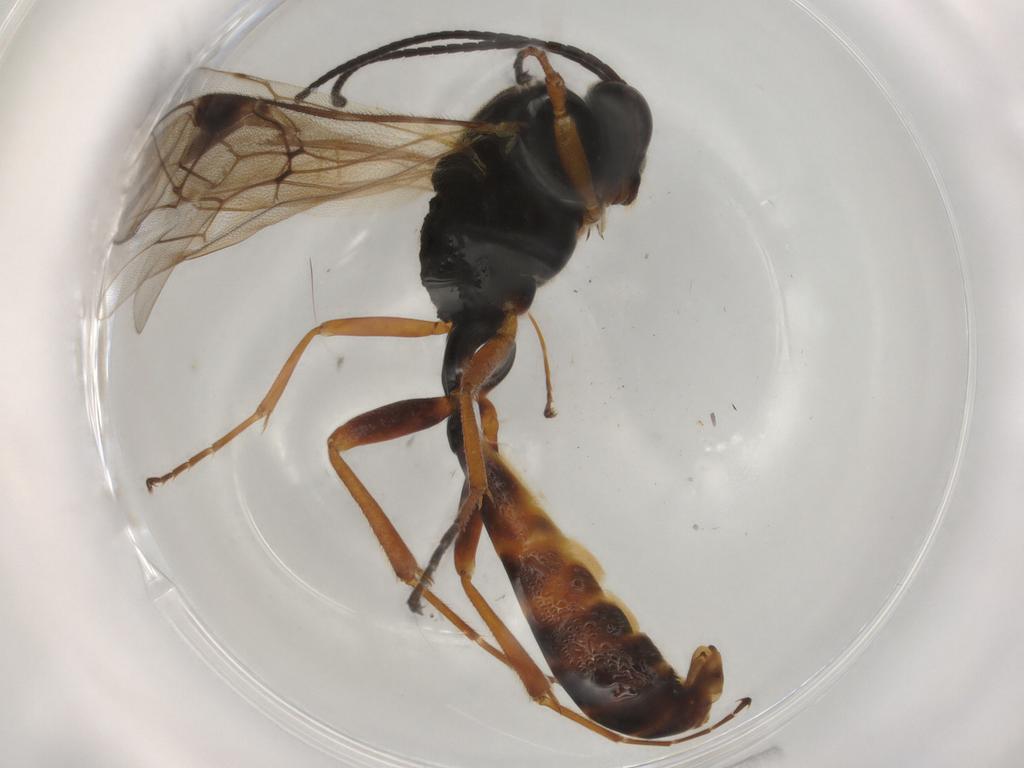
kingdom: Animalia
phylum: Arthropoda
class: Insecta
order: Hymenoptera
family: Ichneumonidae
